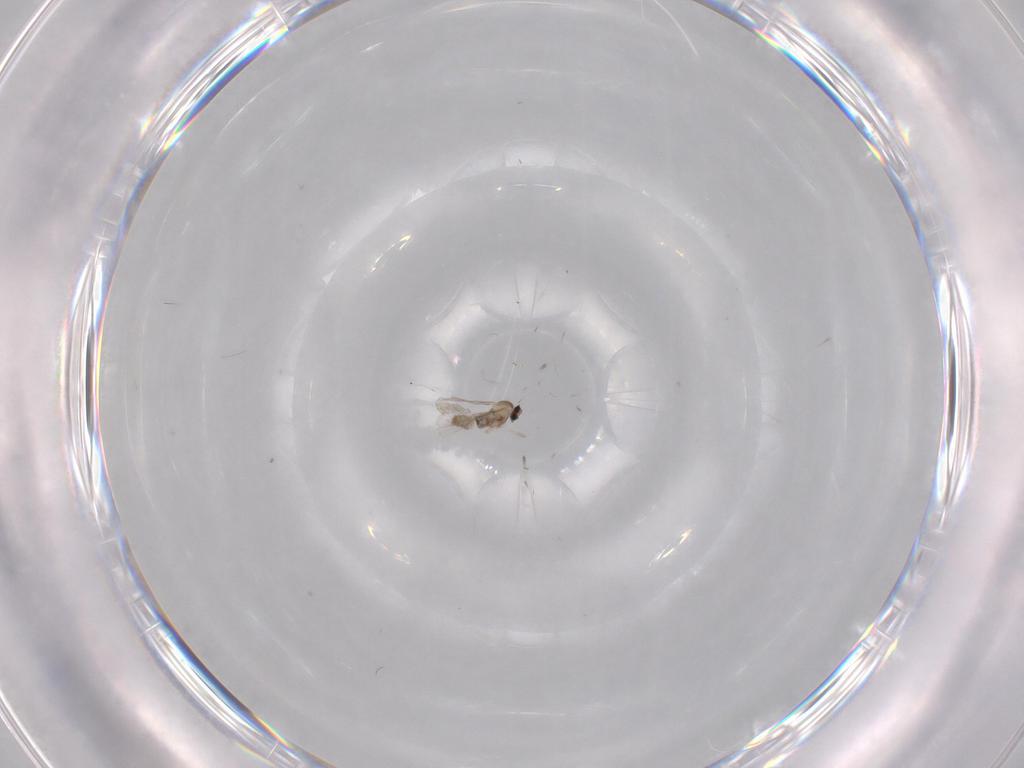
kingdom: Animalia
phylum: Arthropoda
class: Insecta
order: Diptera
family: Cecidomyiidae
